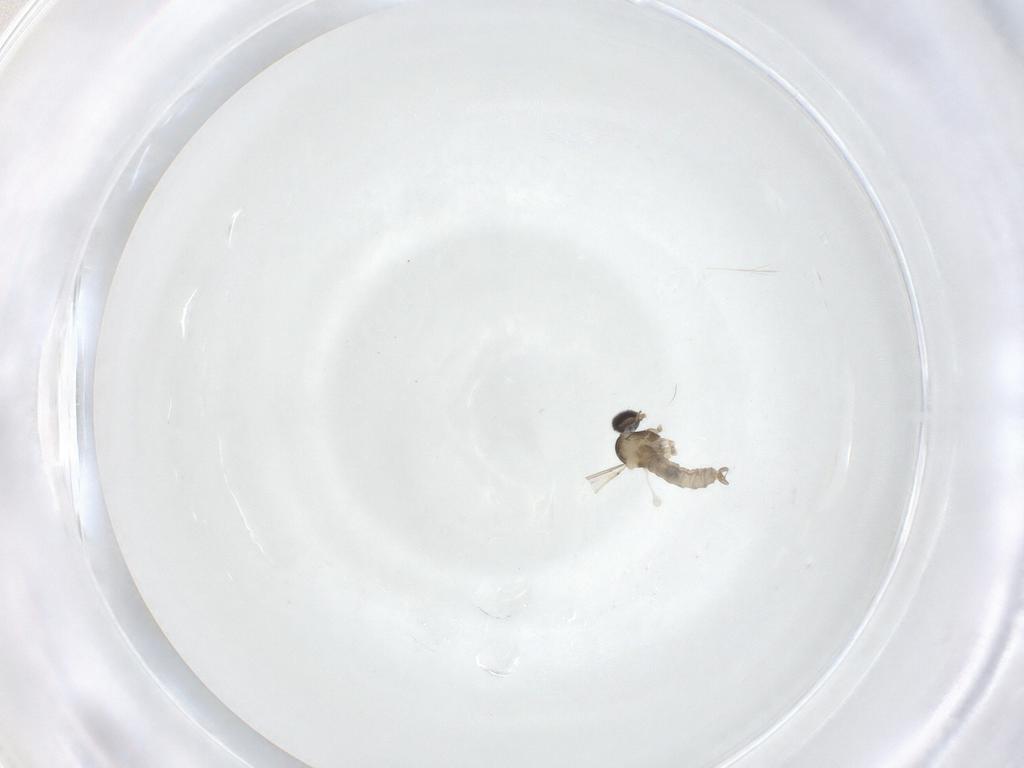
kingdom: Animalia
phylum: Arthropoda
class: Insecta
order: Diptera
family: Cecidomyiidae
